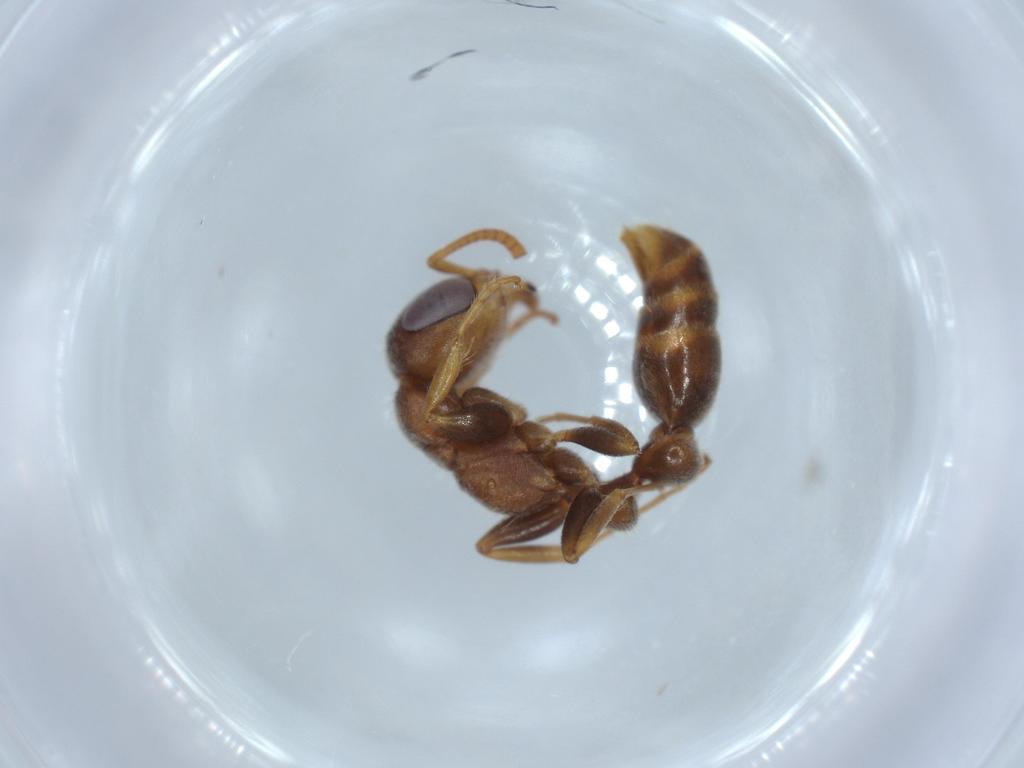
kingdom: Animalia
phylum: Arthropoda
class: Insecta
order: Hymenoptera
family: Formicidae
